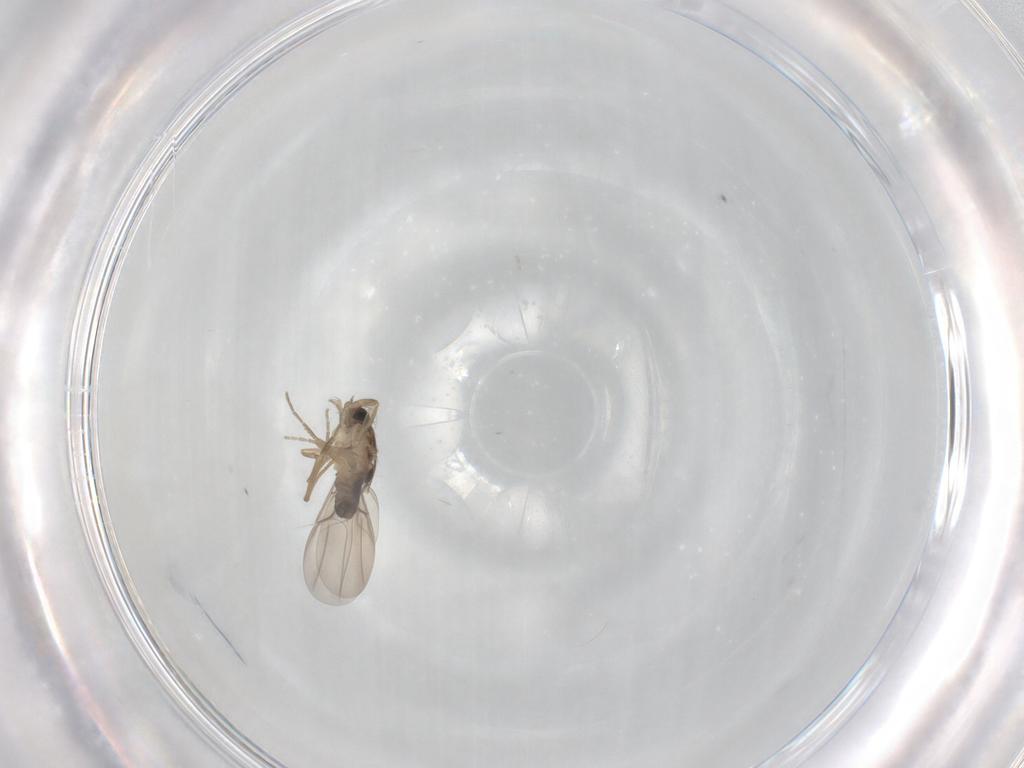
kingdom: Animalia
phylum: Arthropoda
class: Insecta
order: Diptera
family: Phoridae
